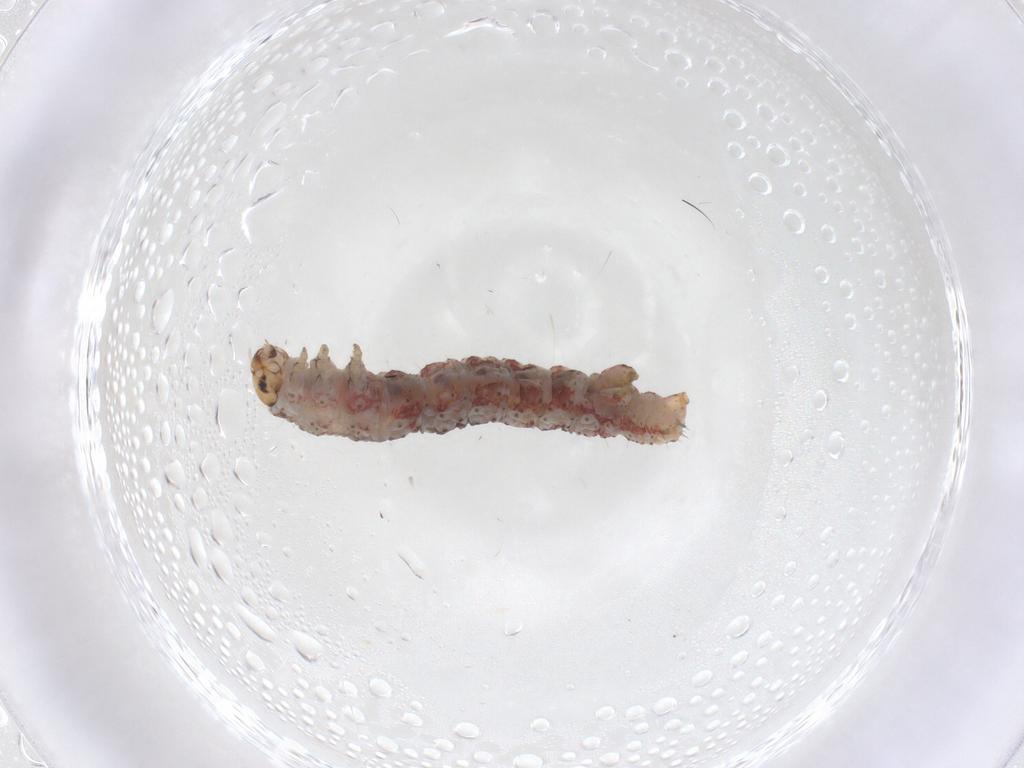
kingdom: Animalia
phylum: Arthropoda
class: Insecta
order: Lepidoptera
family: Geometridae
